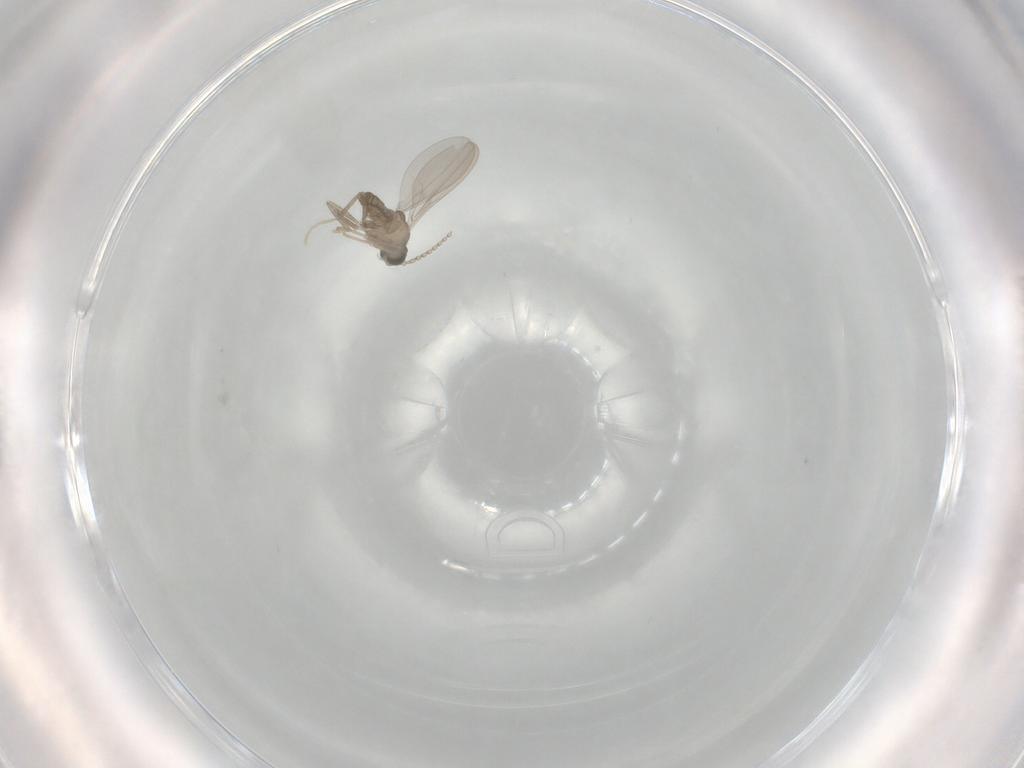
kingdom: Animalia
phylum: Arthropoda
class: Insecta
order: Diptera
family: Cecidomyiidae
